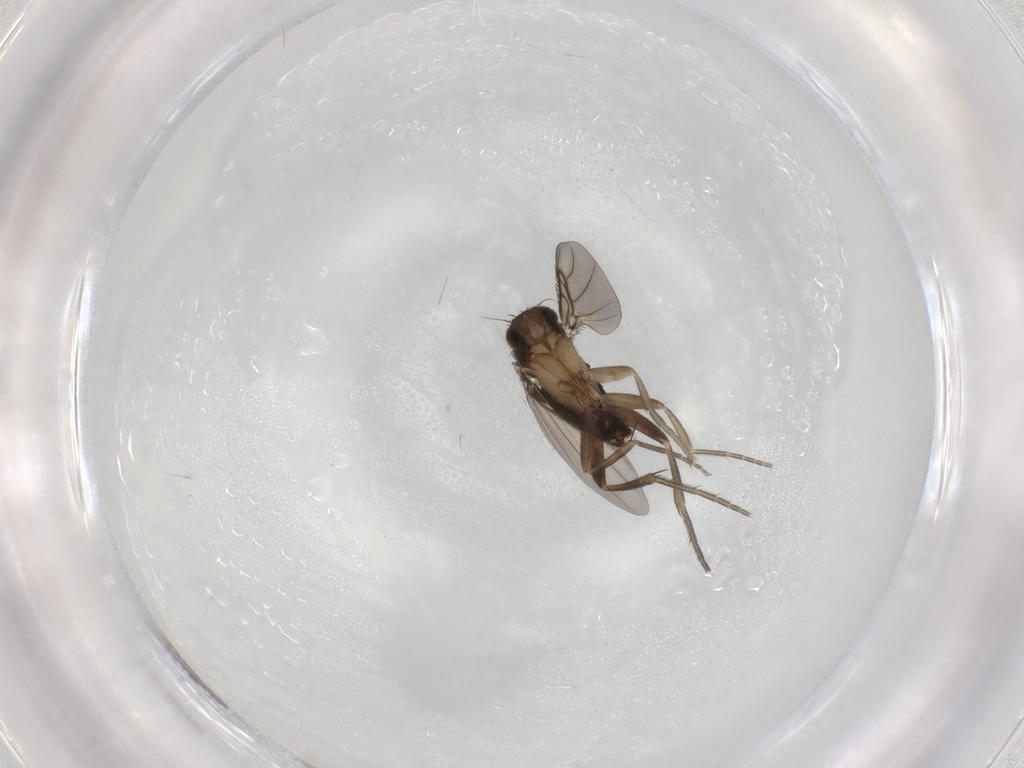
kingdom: Animalia
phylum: Arthropoda
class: Insecta
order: Diptera
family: Phoridae
